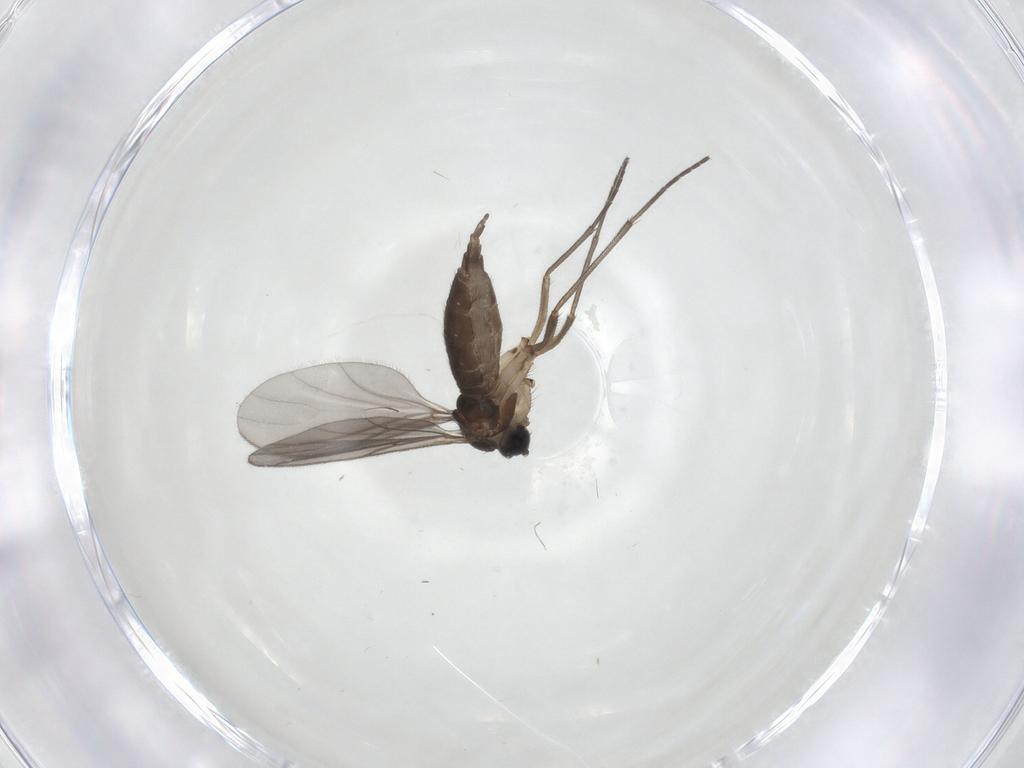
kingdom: Animalia
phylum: Arthropoda
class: Insecta
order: Diptera
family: Sciaridae
